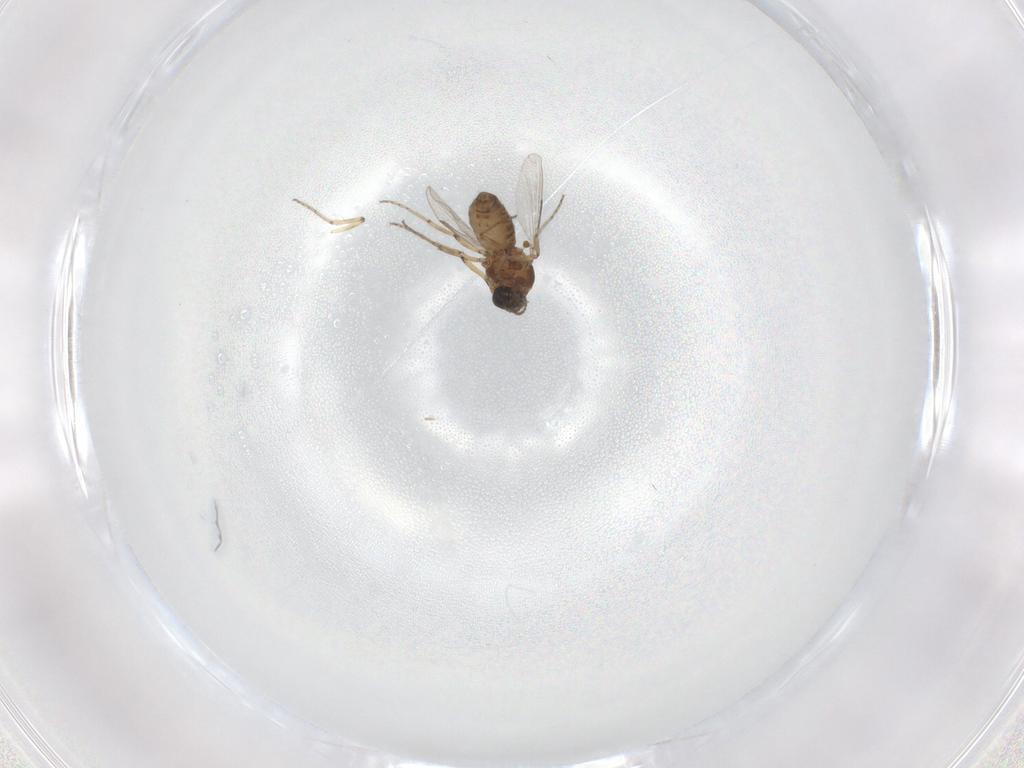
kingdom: Animalia
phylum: Arthropoda
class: Insecta
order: Diptera
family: Ceratopogonidae
